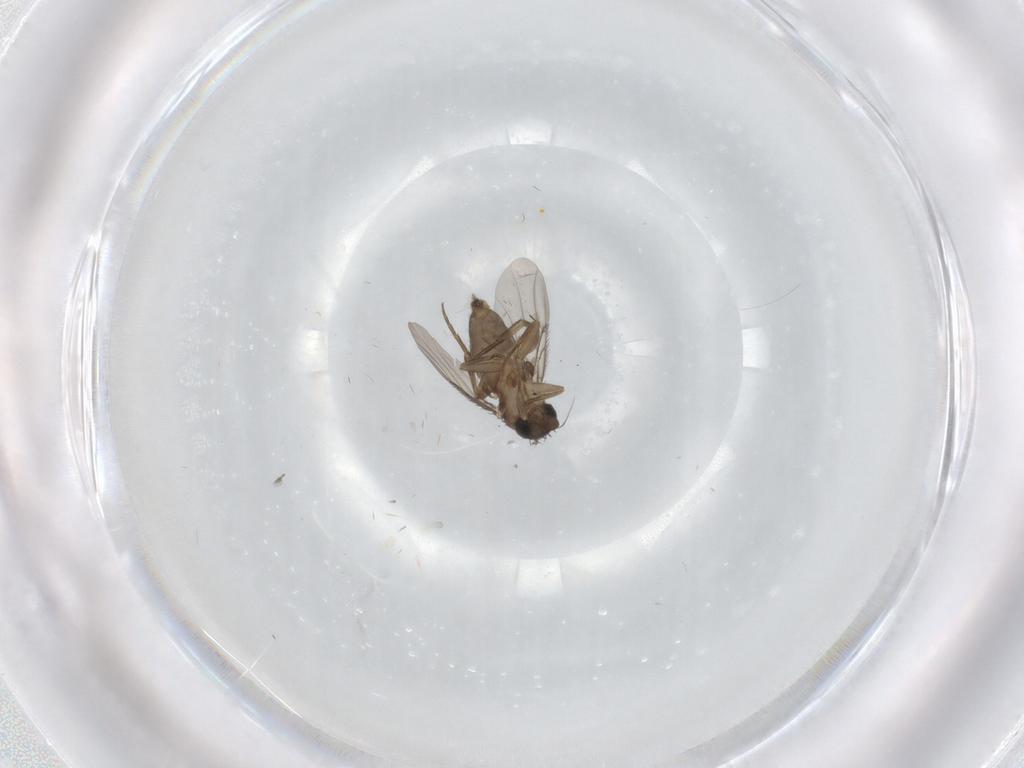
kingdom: Animalia
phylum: Arthropoda
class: Insecta
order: Diptera
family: Phoridae
